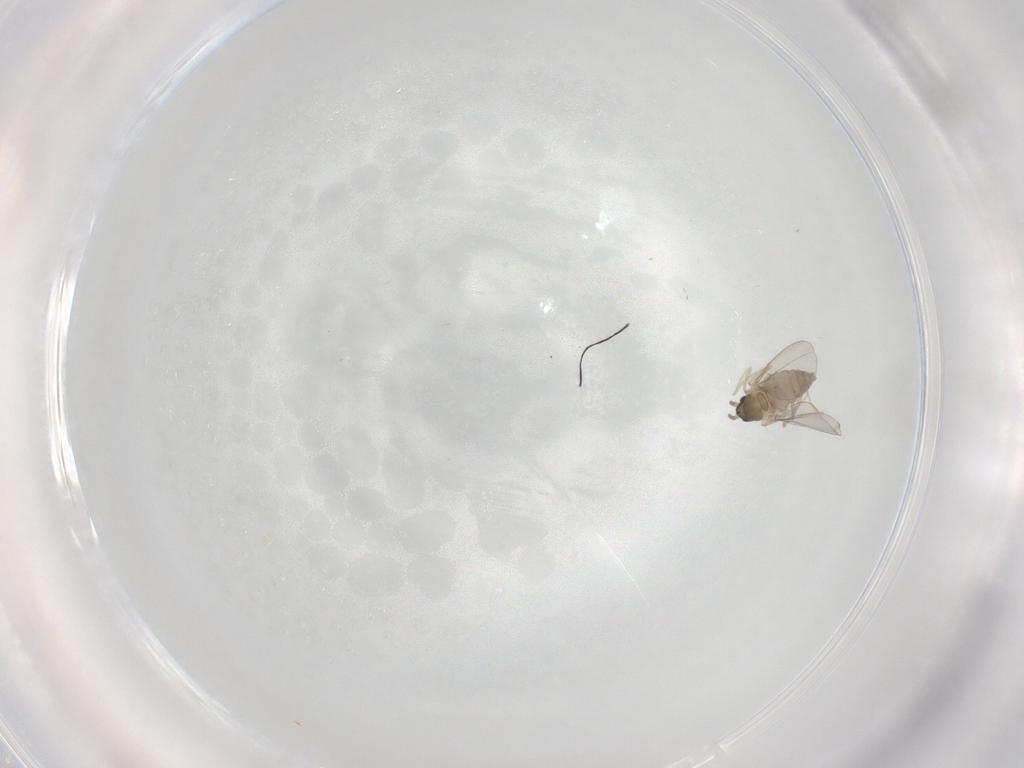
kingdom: Animalia
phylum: Arthropoda
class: Insecta
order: Diptera
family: Cecidomyiidae
